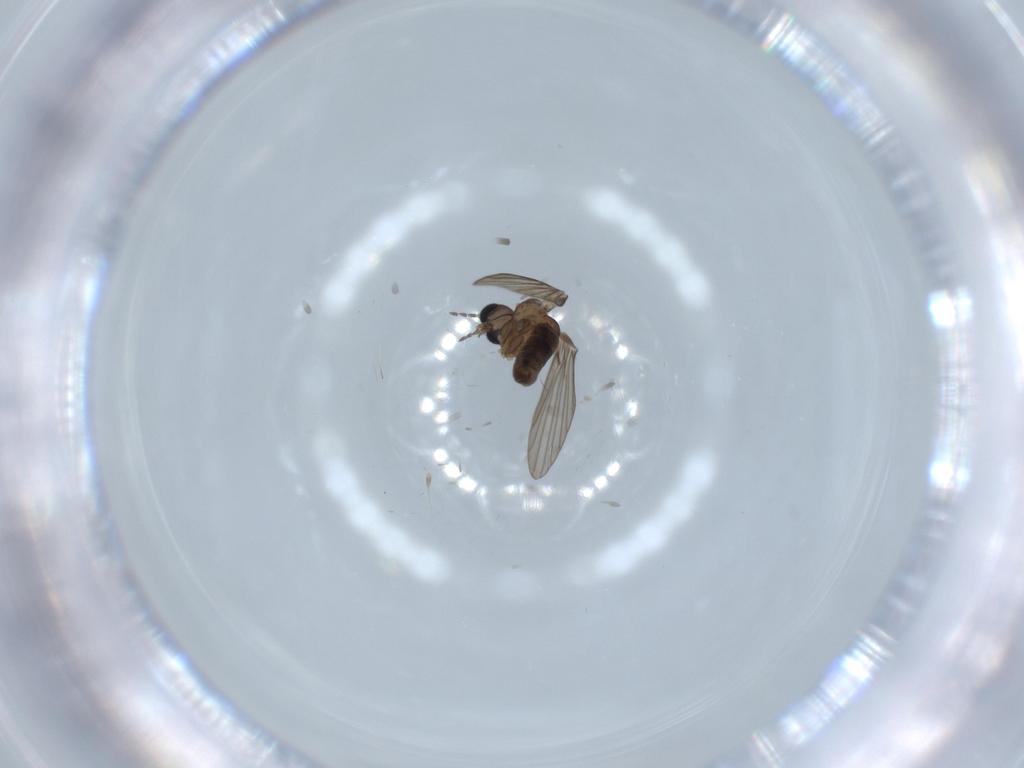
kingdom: Animalia
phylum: Arthropoda
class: Insecta
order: Diptera
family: Psychodidae
